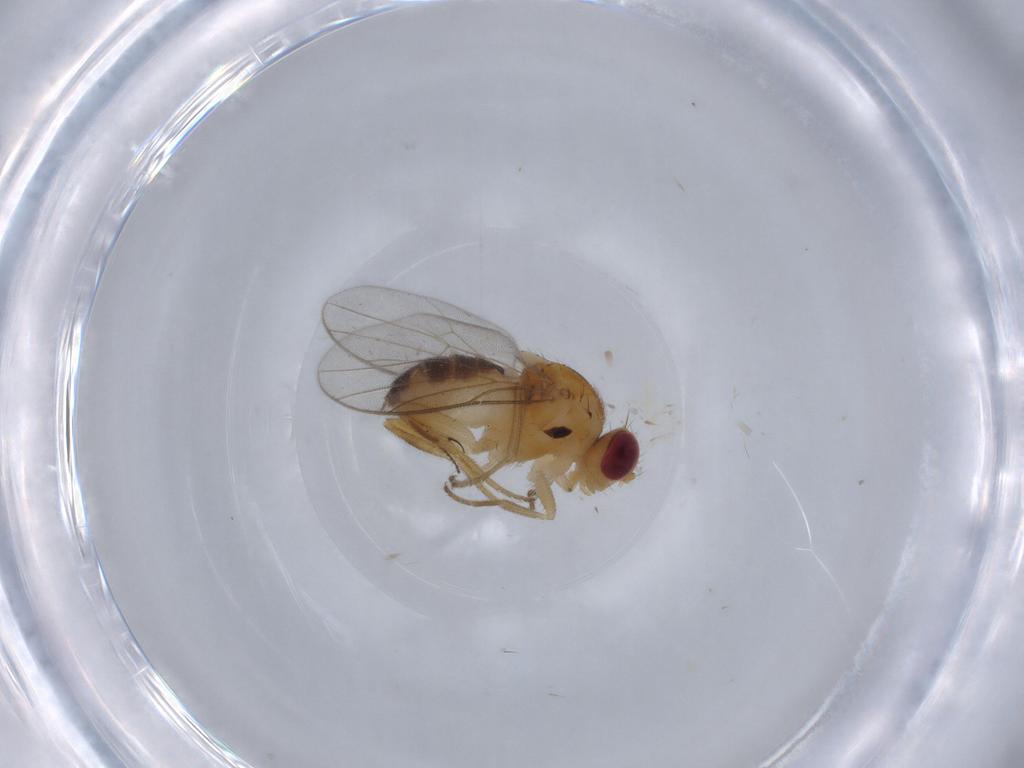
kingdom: Animalia
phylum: Arthropoda
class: Insecta
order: Diptera
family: Chloropidae
